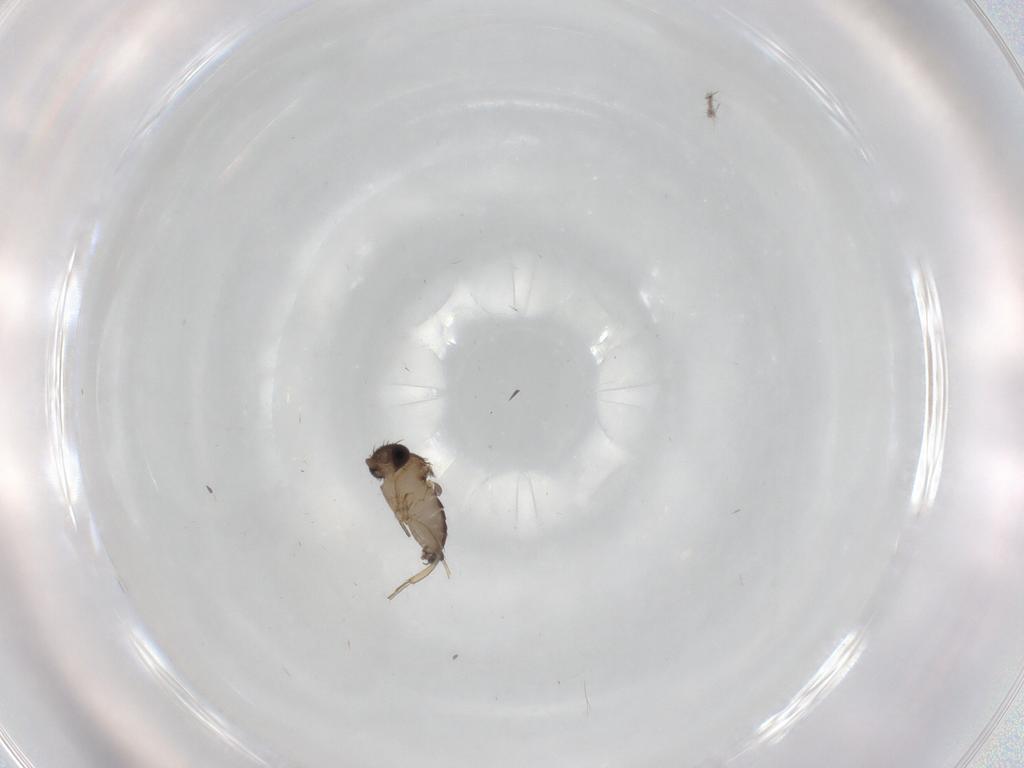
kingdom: Animalia
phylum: Arthropoda
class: Insecta
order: Diptera
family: Phoridae
